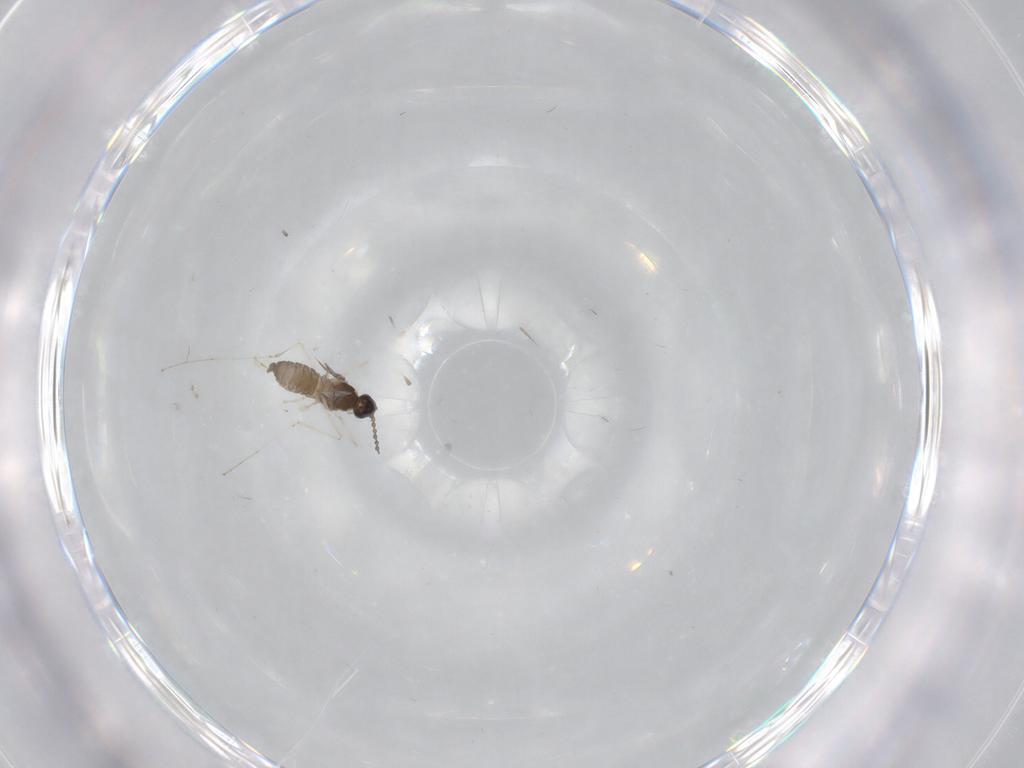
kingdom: Animalia
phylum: Arthropoda
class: Insecta
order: Diptera
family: Cecidomyiidae
